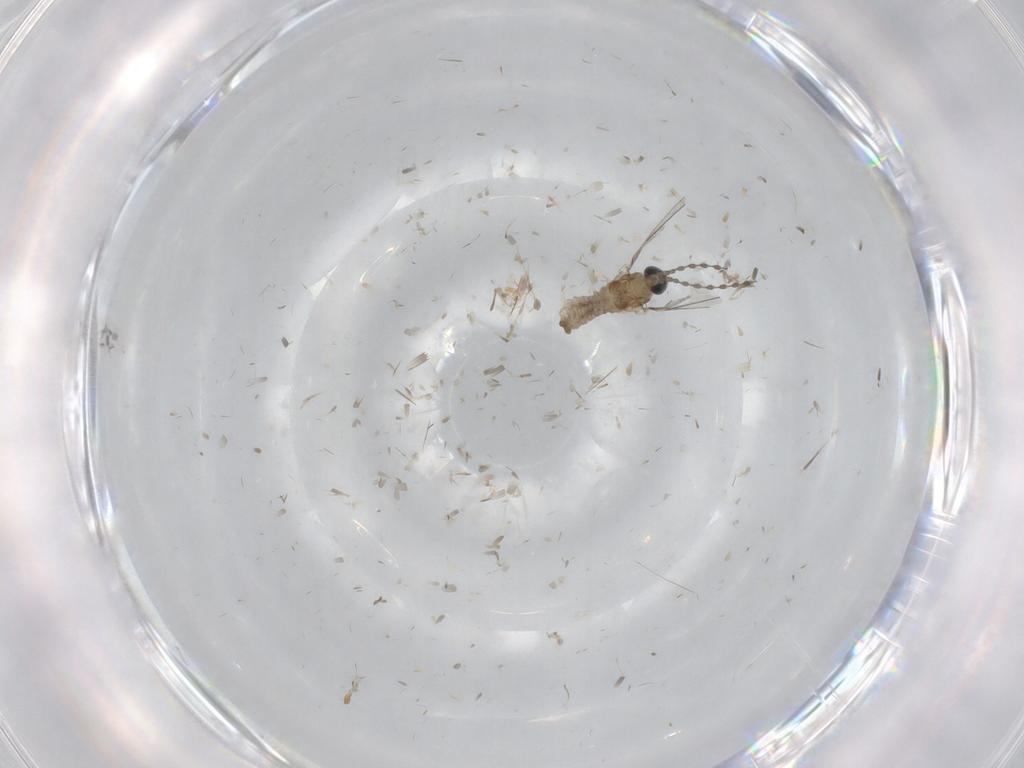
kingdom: Animalia
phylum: Arthropoda
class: Insecta
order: Diptera
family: Cecidomyiidae
